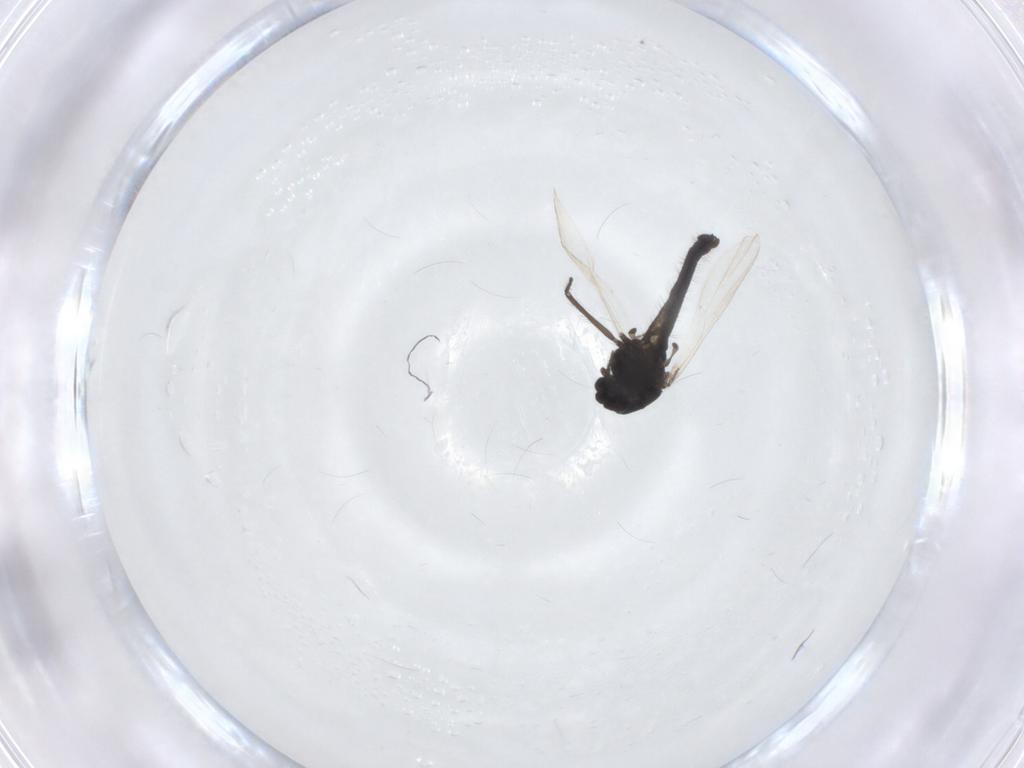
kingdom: Animalia
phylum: Arthropoda
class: Insecta
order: Diptera
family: Chironomidae
